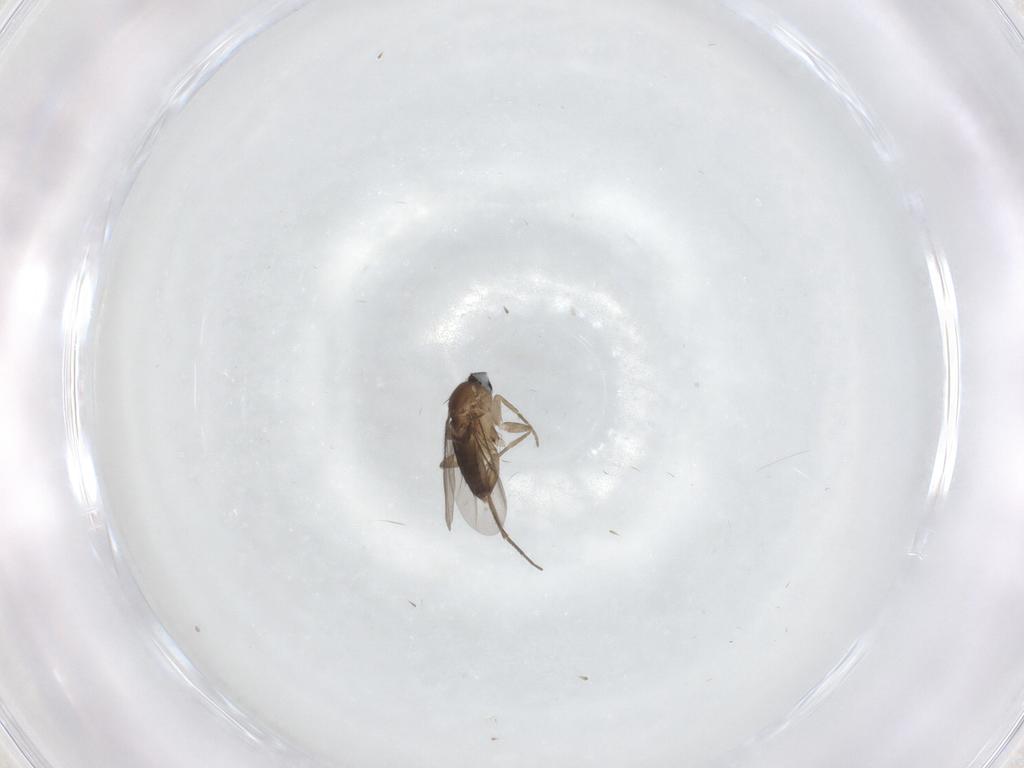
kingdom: Animalia
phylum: Arthropoda
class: Insecta
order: Diptera
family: Phoridae
